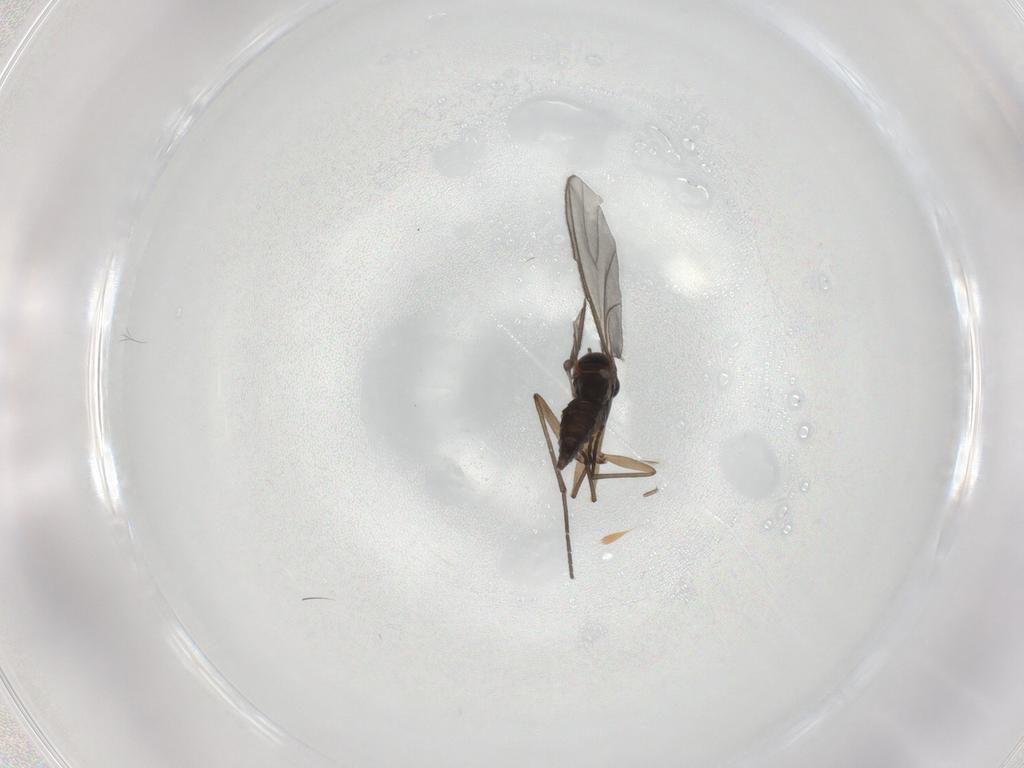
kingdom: Animalia
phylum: Arthropoda
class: Insecta
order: Diptera
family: Sciaridae
